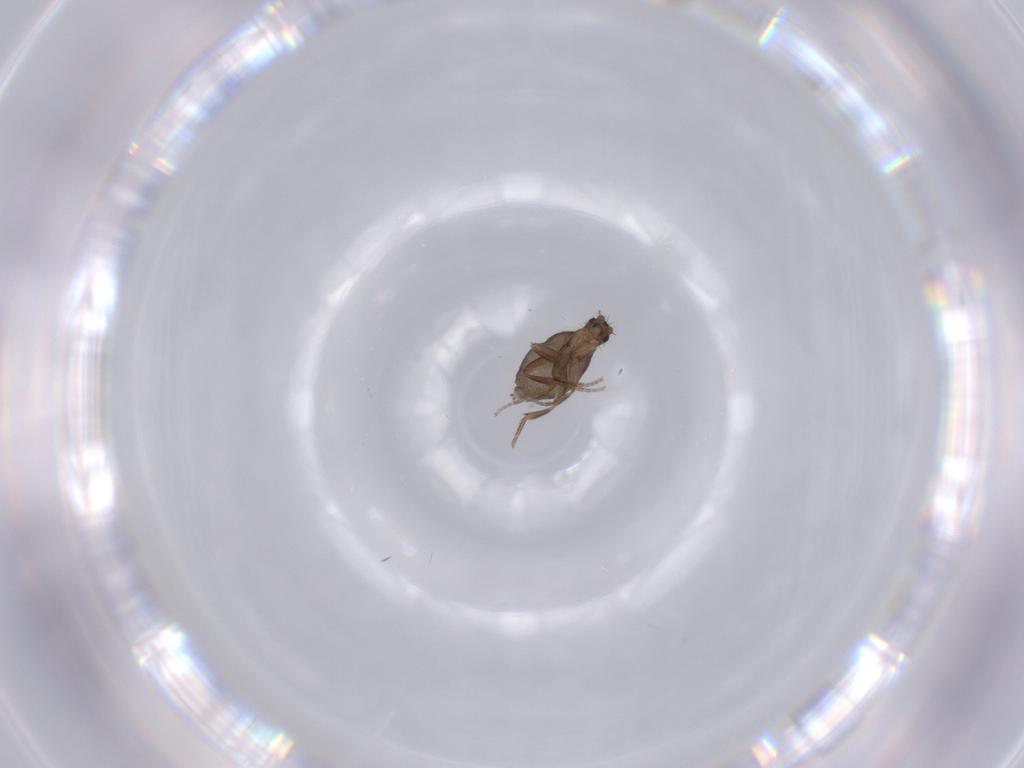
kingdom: Animalia
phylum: Arthropoda
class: Insecta
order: Diptera
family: Phoridae
